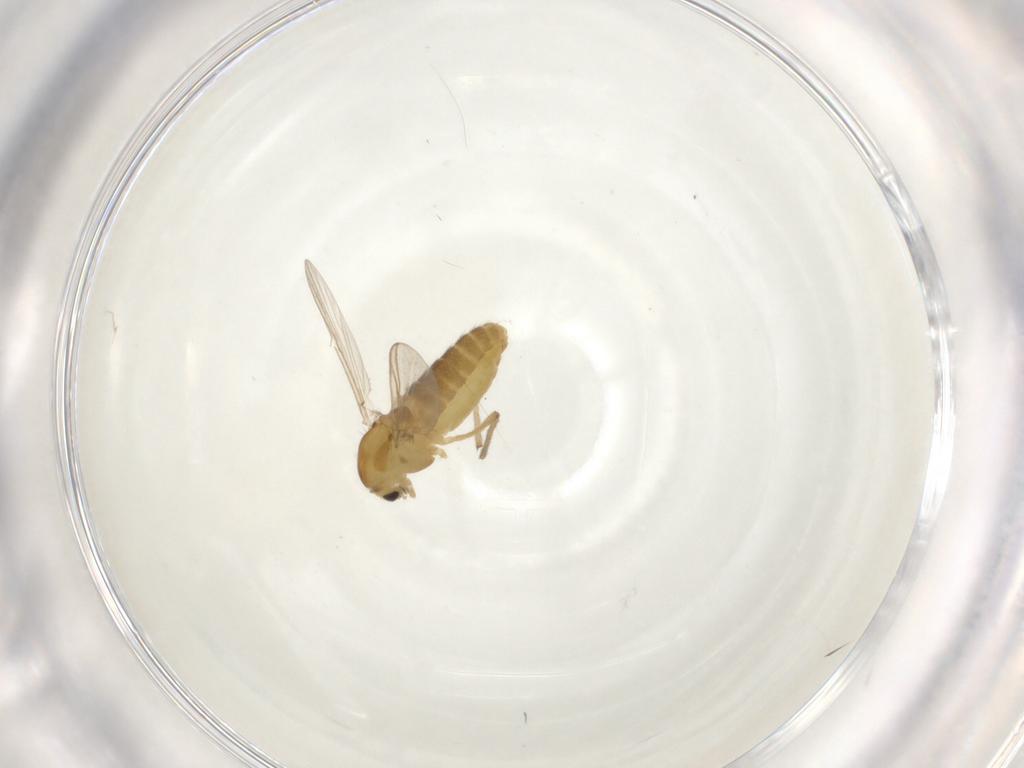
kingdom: Animalia
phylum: Arthropoda
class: Insecta
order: Diptera
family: Chironomidae
